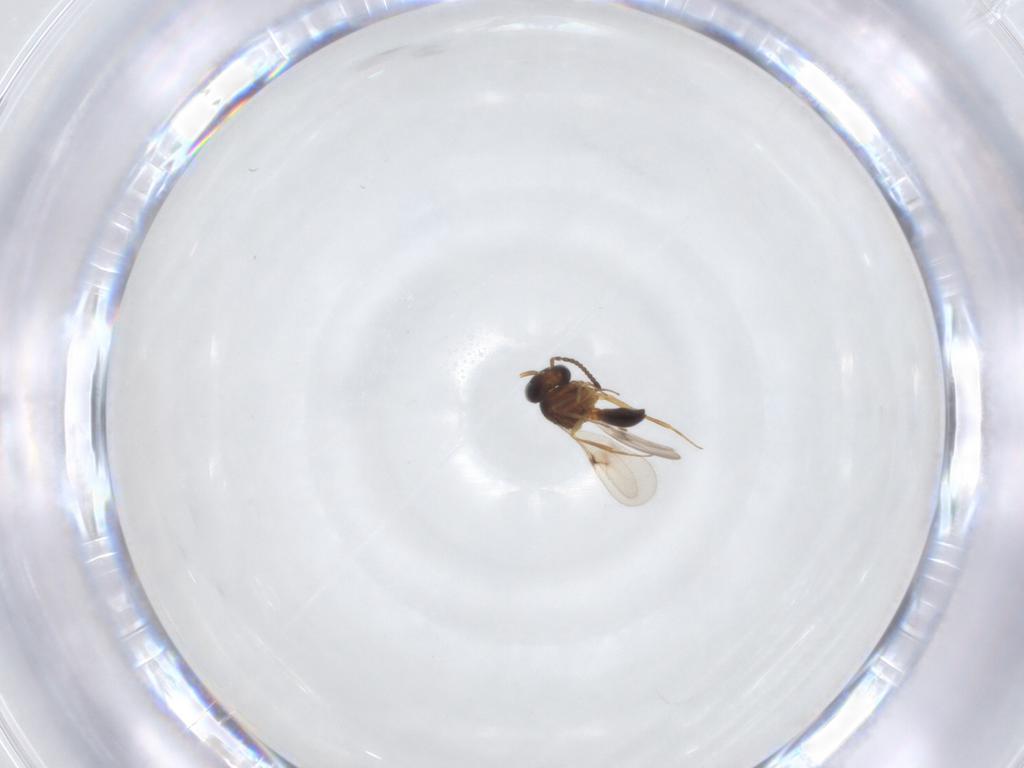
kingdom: Animalia
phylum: Arthropoda
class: Arachnida
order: Araneae
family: Pholcidae
